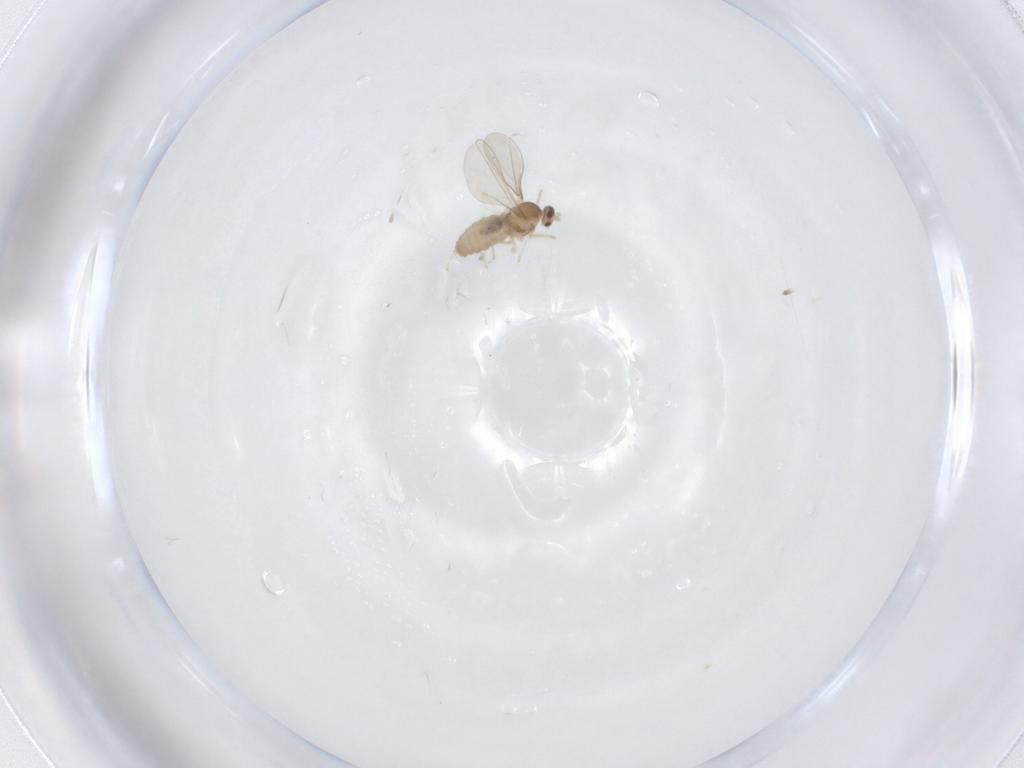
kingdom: Animalia
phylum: Arthropoda
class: Insecta
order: Diptera
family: Cecidomyiidae
